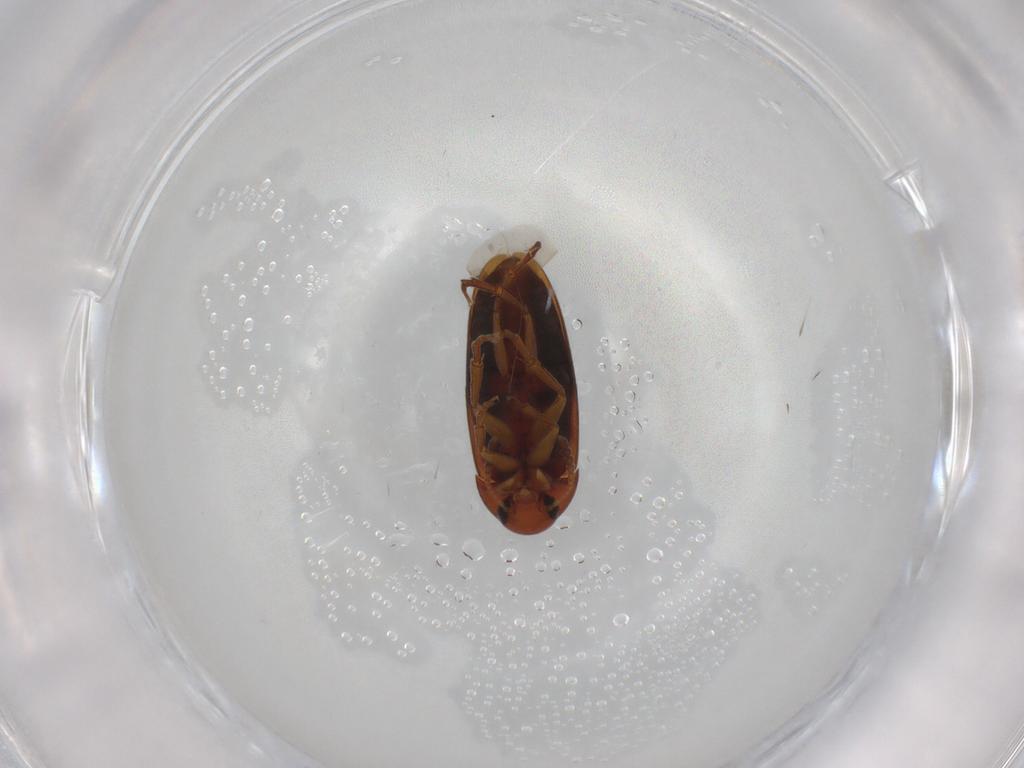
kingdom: Animalia
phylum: Arthropoda
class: Insecta
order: Coleoptera
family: Scraptiidae
